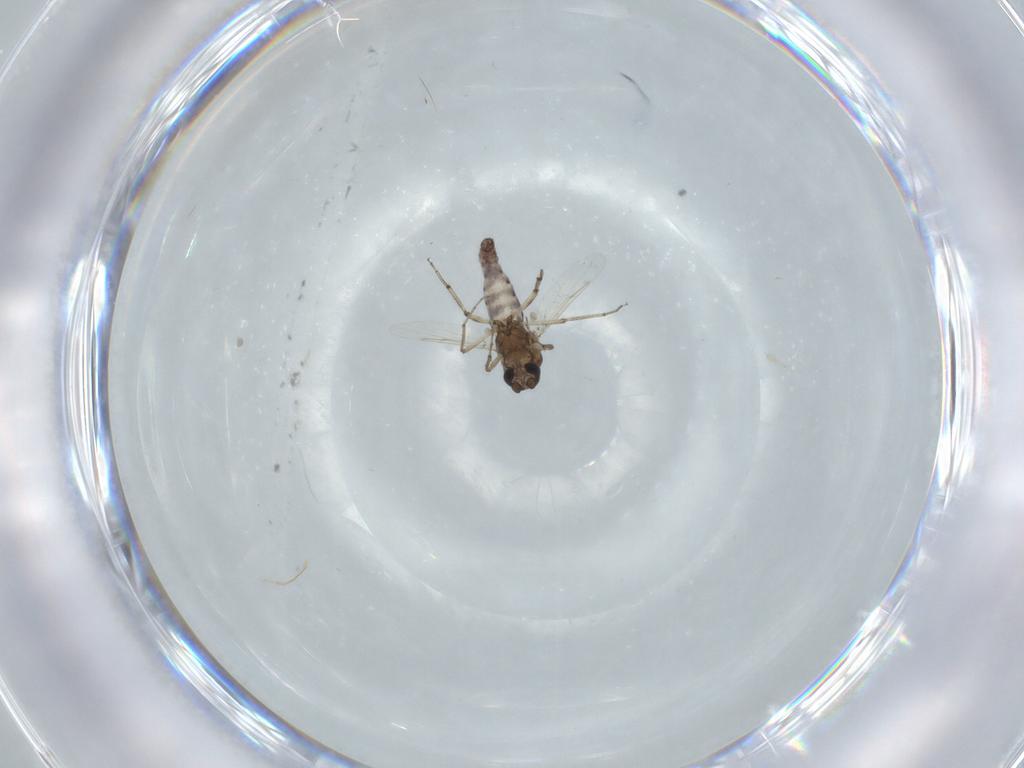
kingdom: Animalia
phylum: Arthropoda
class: Insecta
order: Diptera
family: Ceratopogonidae
